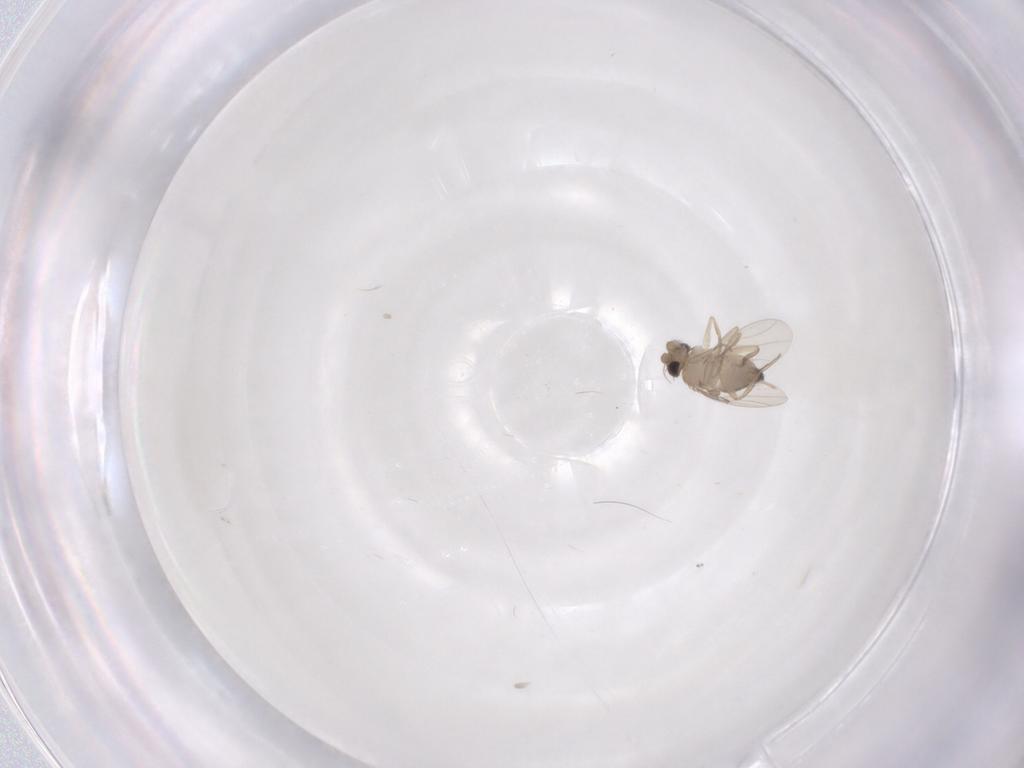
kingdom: Animalia
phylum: Arthropoda
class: Insecta
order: Diptera
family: Phoridae
